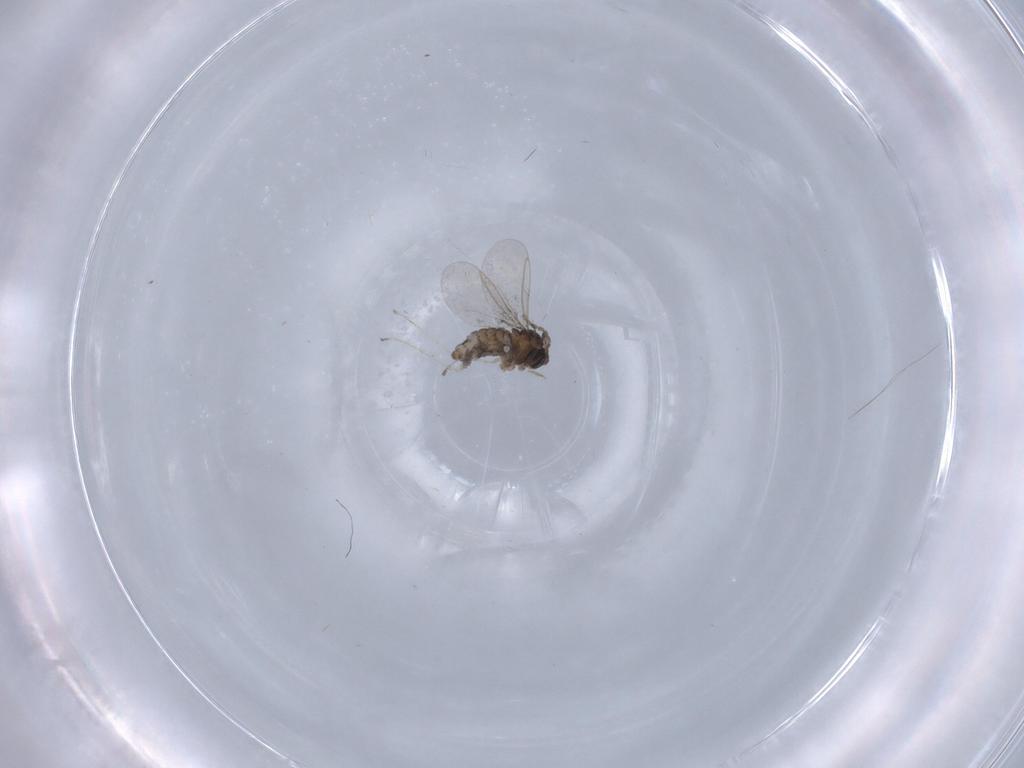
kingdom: Animalia
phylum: Arthropoda
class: Insecta
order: Diptera
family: Cecidomyiidae
